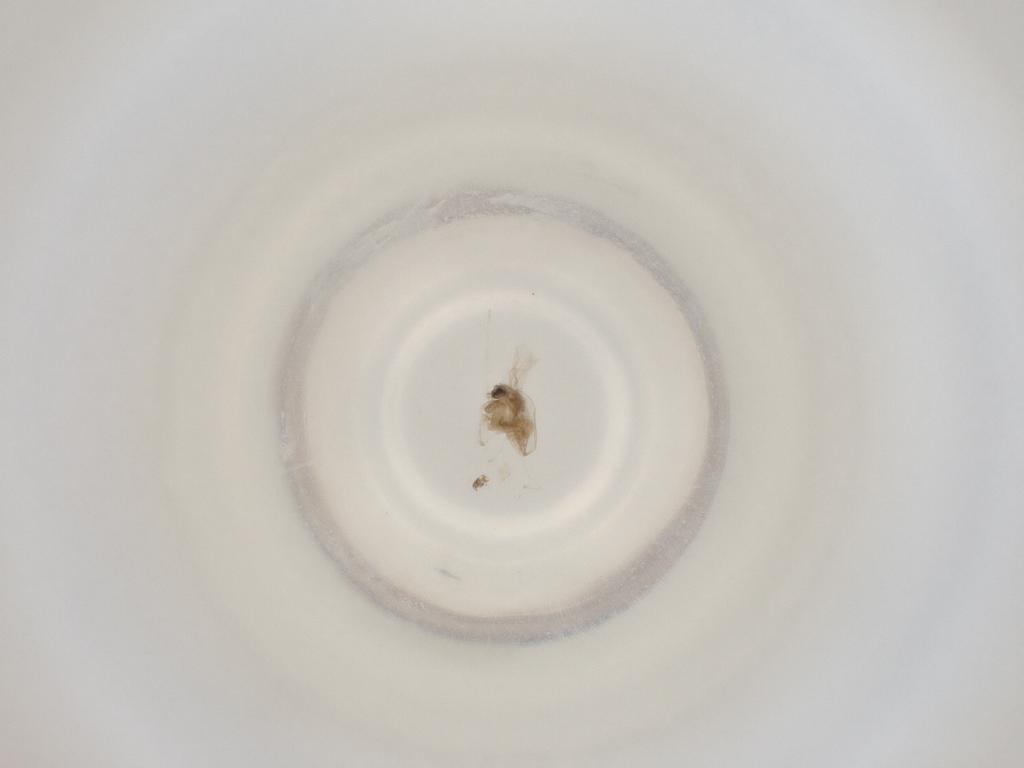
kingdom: Animalia
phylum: Arthropoda
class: Insecta
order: Diptera
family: Cecidomyiidae
